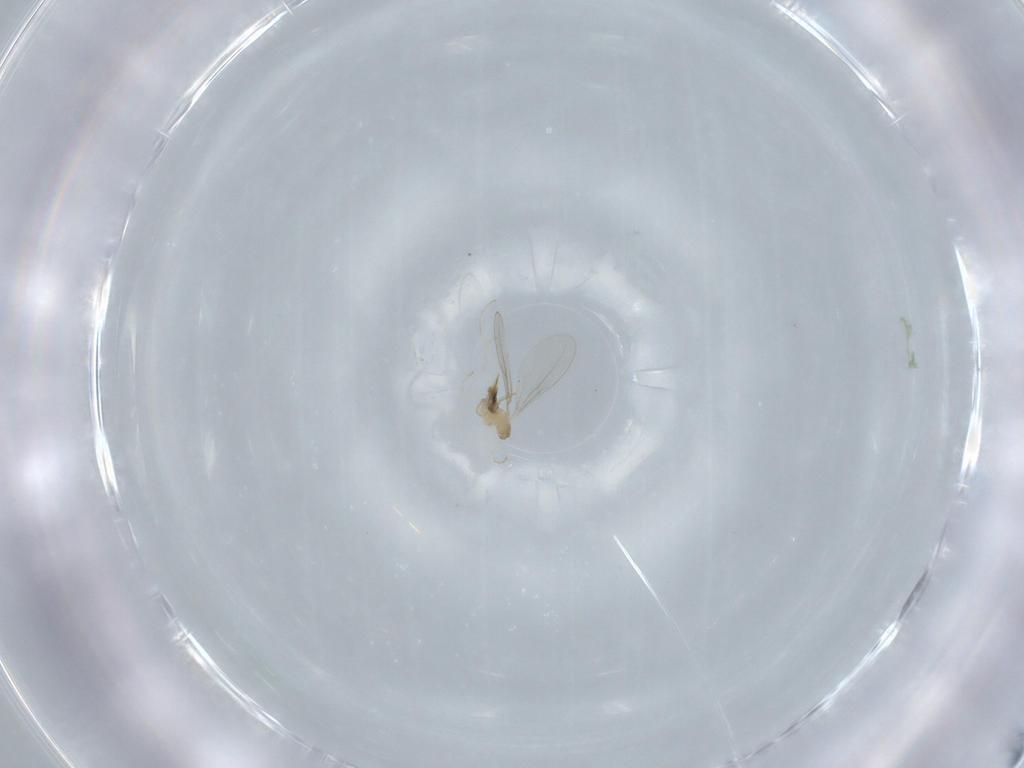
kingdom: Animalia
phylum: Arthropoda
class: Insecta
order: Diptera
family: Cecidomyiidae
